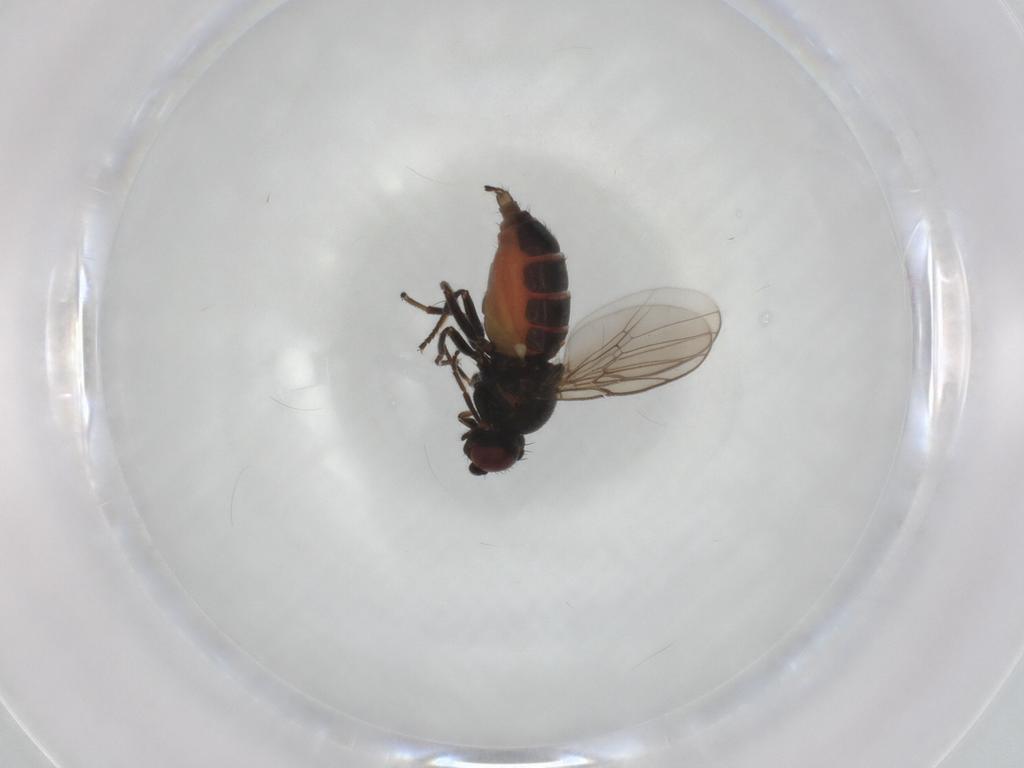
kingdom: Animalia
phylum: Arthropoda
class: Insecta
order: Diptera
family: Chloropidae
